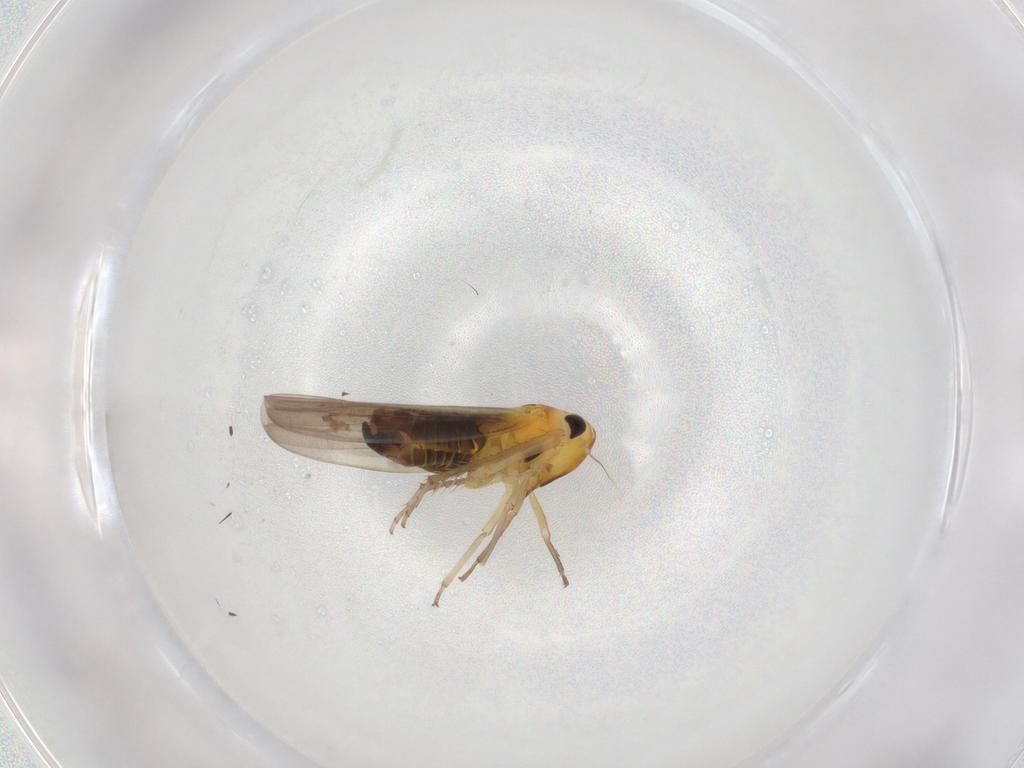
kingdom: Animalia
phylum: Arthropoda
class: Insecta
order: Hemiptera
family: Cicadellidae
